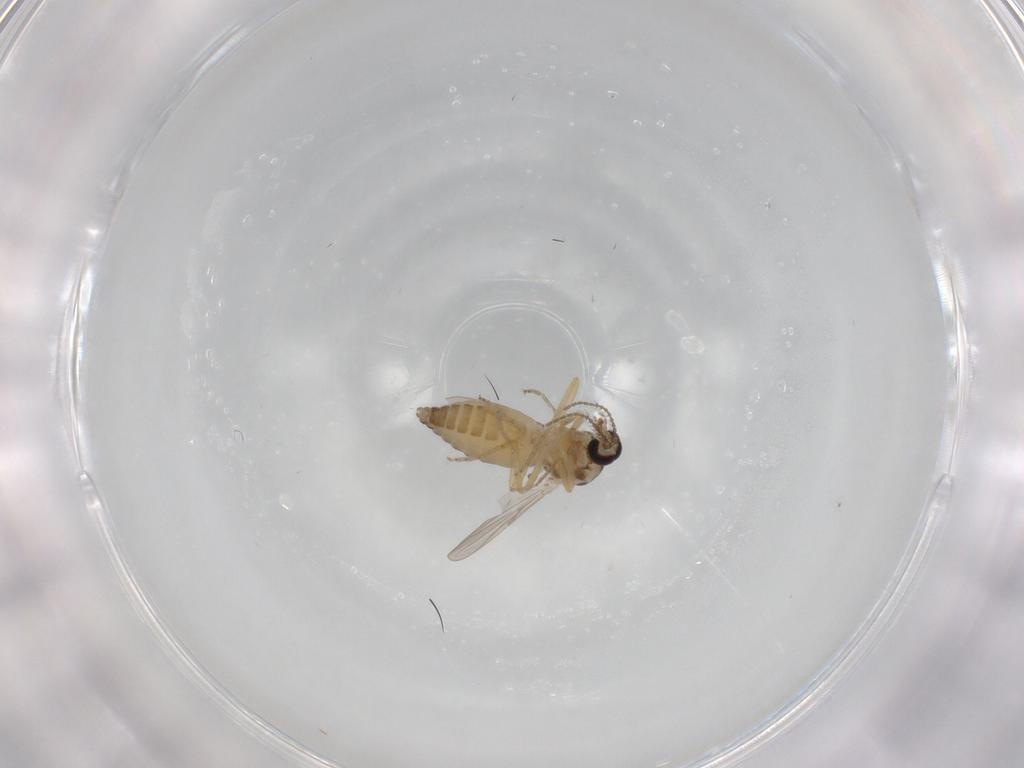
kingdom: Animalia
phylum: Arthropoda
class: Insecta
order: Diptera
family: Ceratopogonidae
